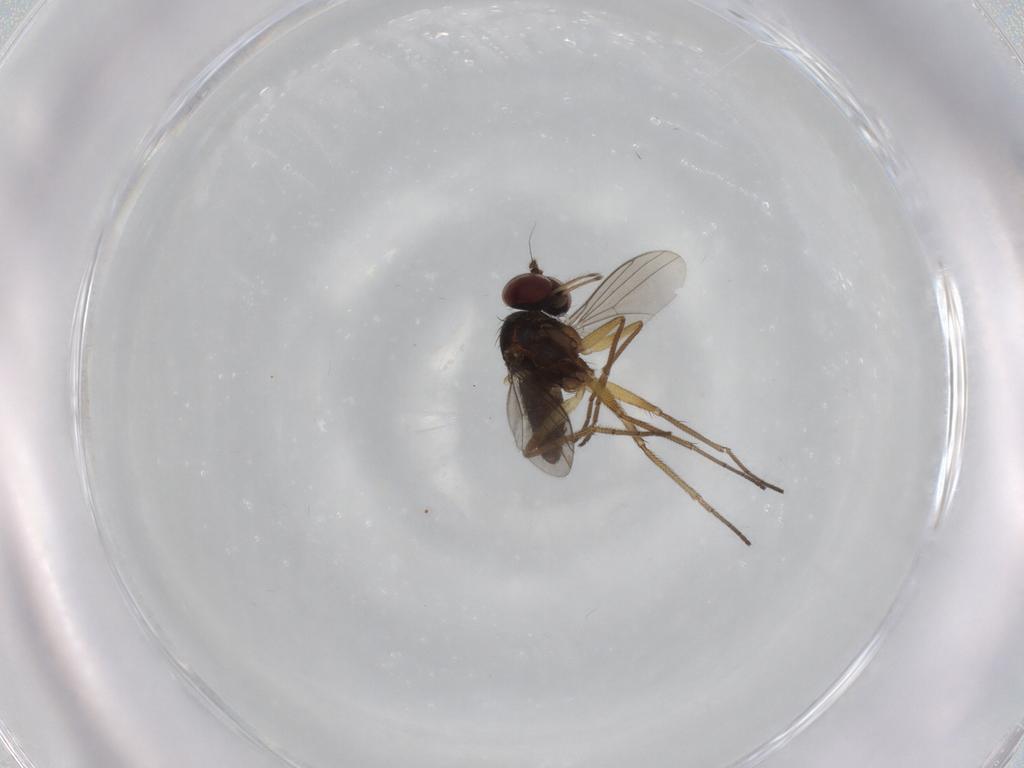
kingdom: Animalia
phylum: Arthropoda
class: Insecta
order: Diptera
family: Dolichopodidae
